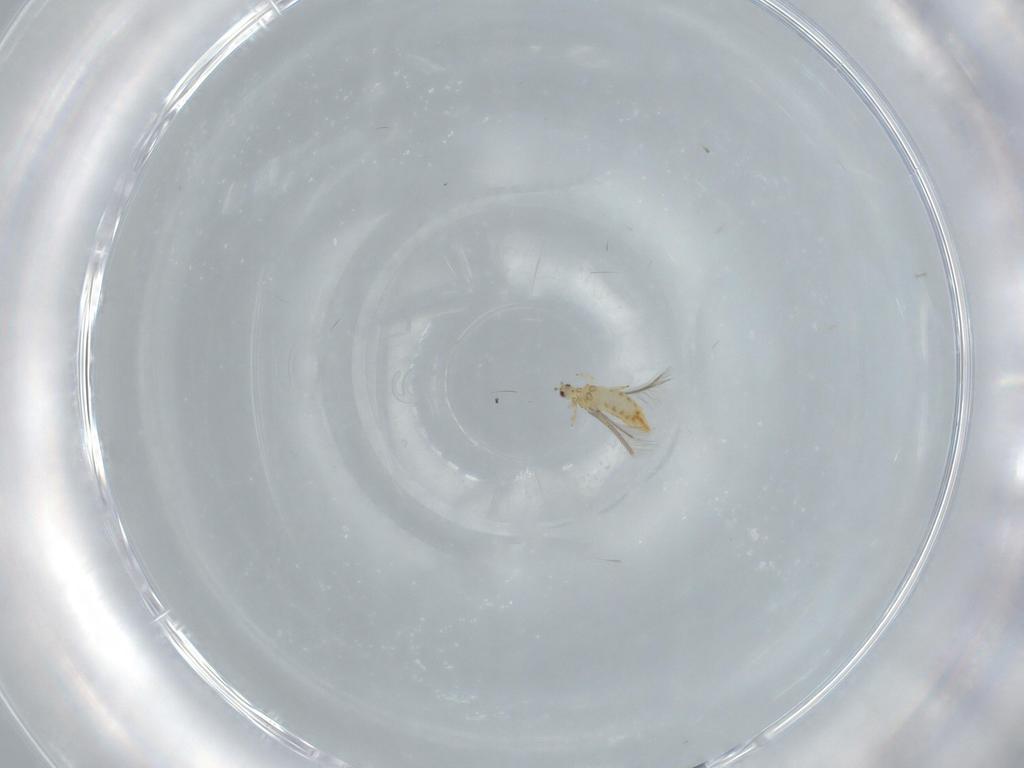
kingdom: Animalia
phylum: Arthropoda
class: Insecta
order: Thysanoptera
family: Thripidae
